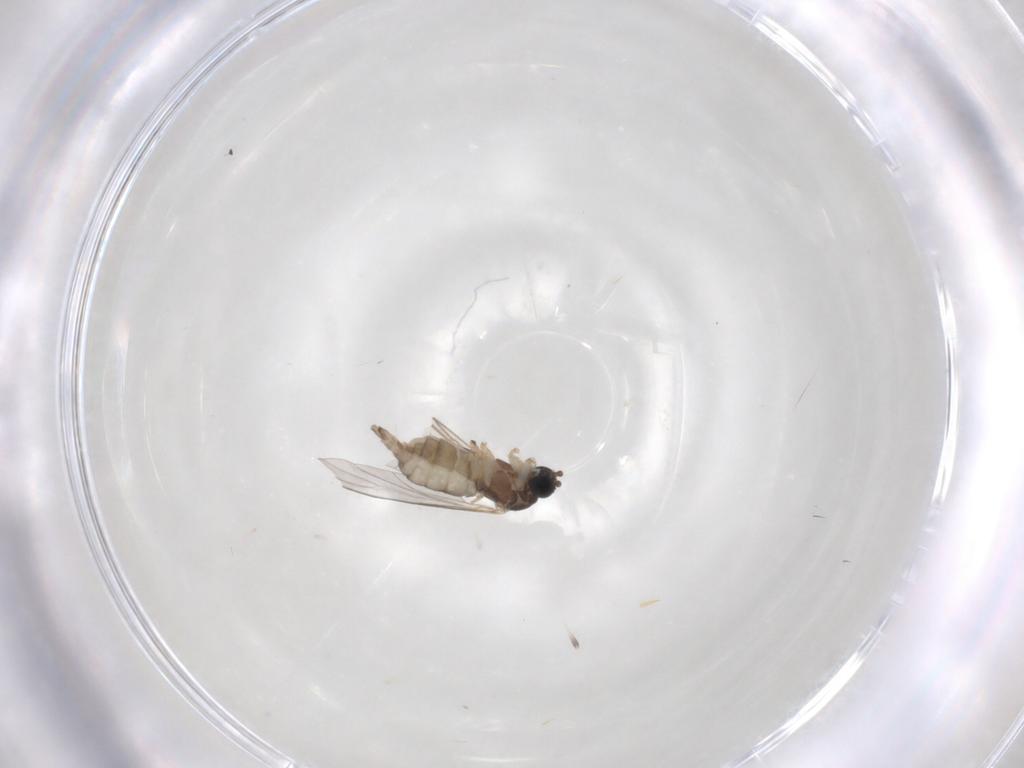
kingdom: Animalia
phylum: Arthropoda
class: Insecta
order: Diptera
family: Sciaridae
